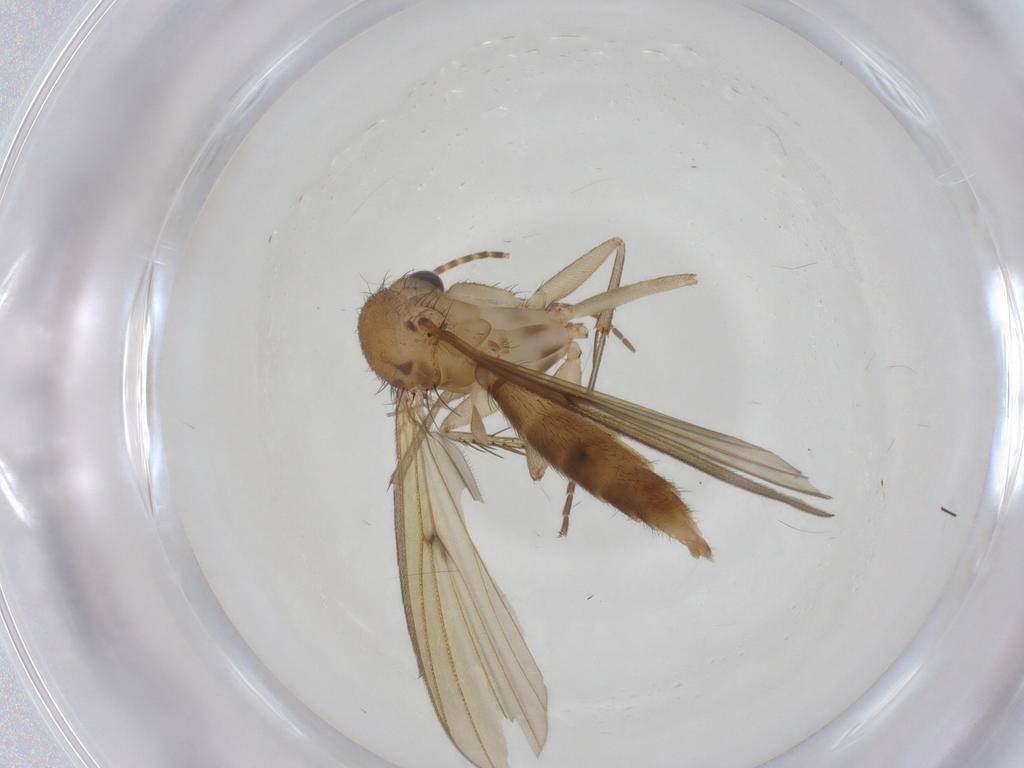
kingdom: Animalia
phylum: Arthropoda
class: Insecta
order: Diptera
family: Mycetophilidae
